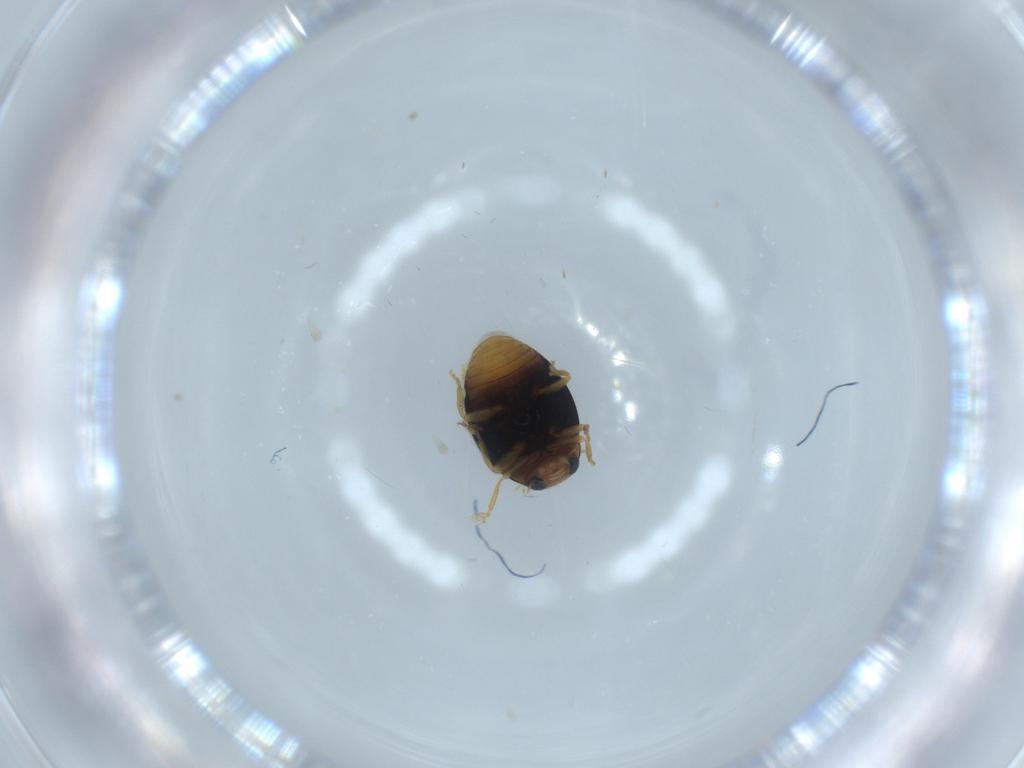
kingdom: Animalia
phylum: Arthropoda
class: Insecta
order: Coleoptera
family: Coccinellidae
